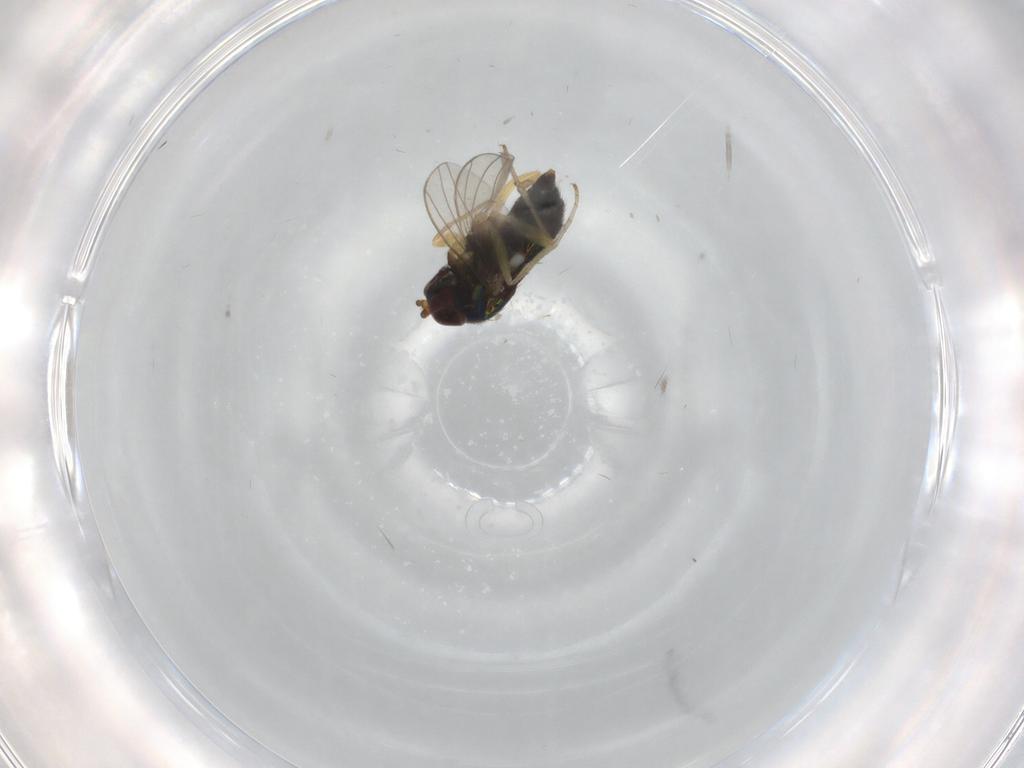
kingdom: Animalia
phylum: Arthropoda
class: Insecta
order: Diptera
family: Dolichopodidae
